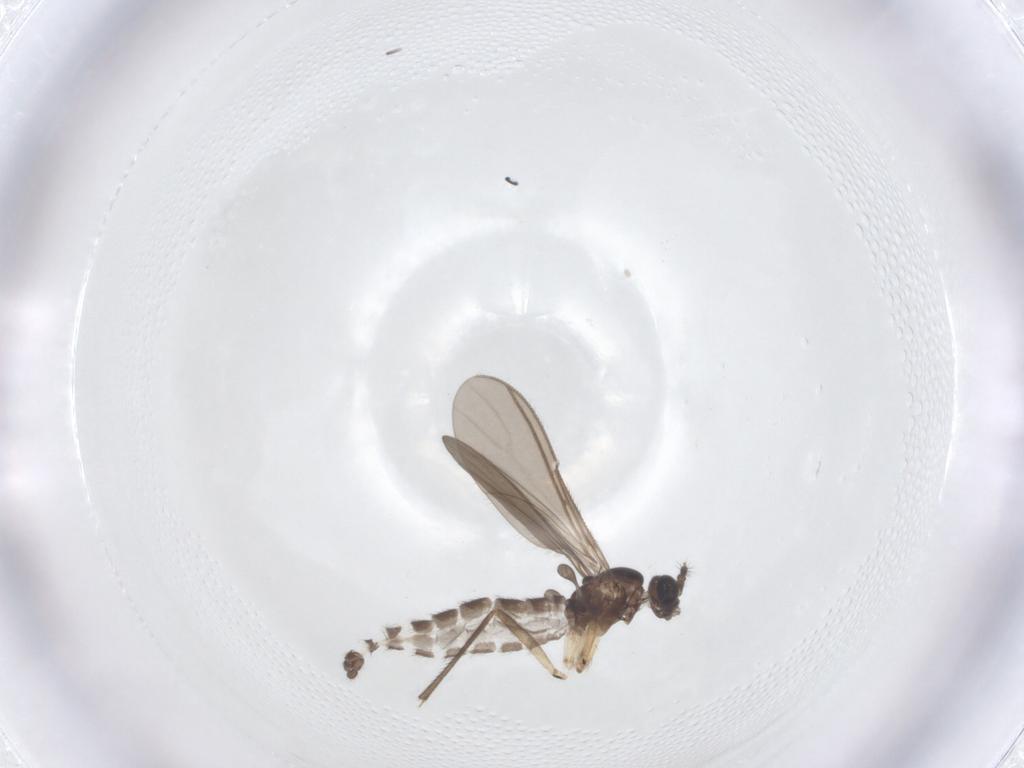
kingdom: Animalia
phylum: Arthropoda
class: Insecta
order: Diptera
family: Sciaridae
